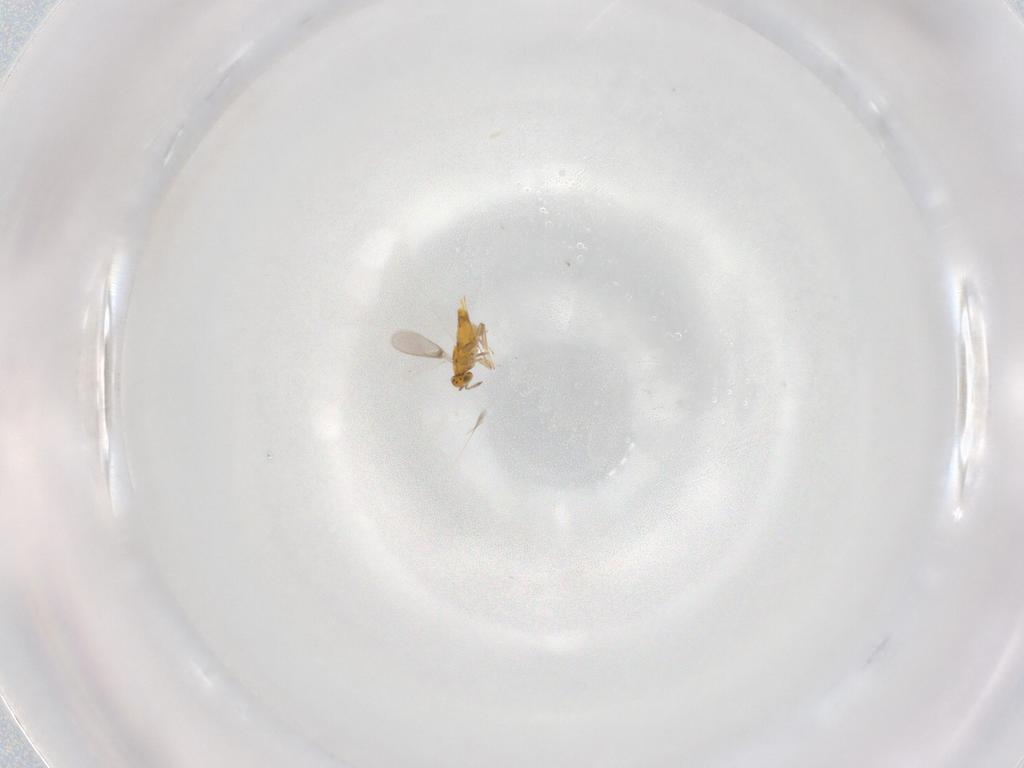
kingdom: Animalia
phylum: Arthropoda
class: Insecta
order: Hymenoptera
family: Aphelinidae
